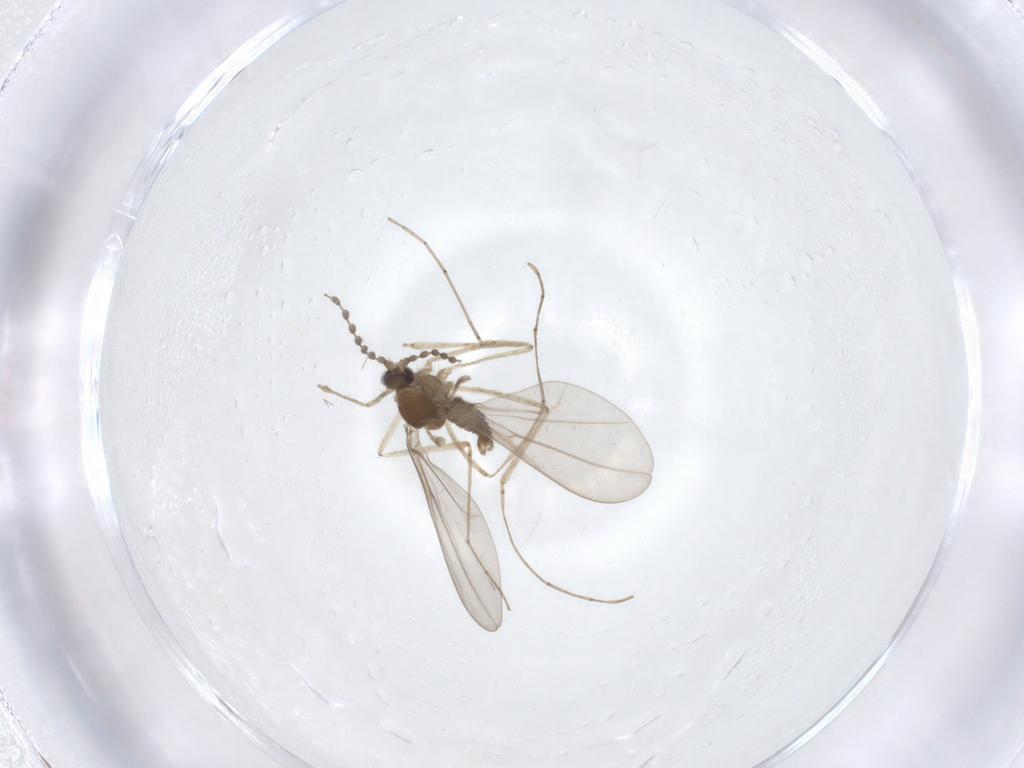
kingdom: Animalia
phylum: Arthropoda
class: Insecta
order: Diptera
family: Cecidomyiidae
